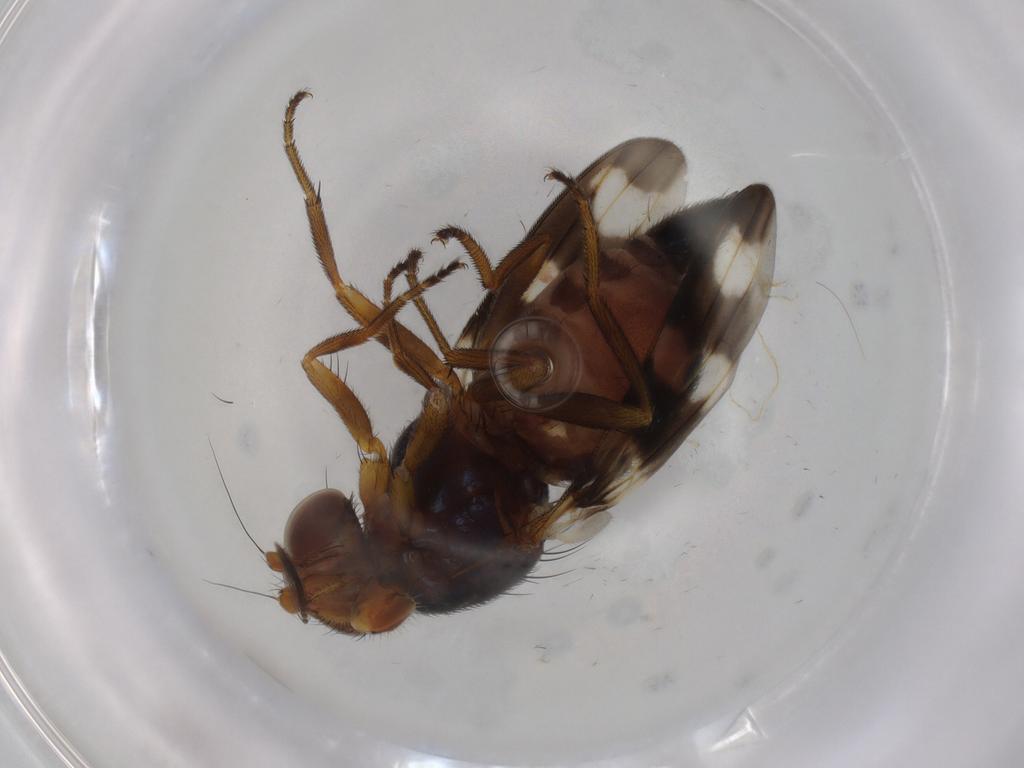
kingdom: Animalia
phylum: Arthropoda
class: Insecta
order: Diptera
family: Ulidiidae
